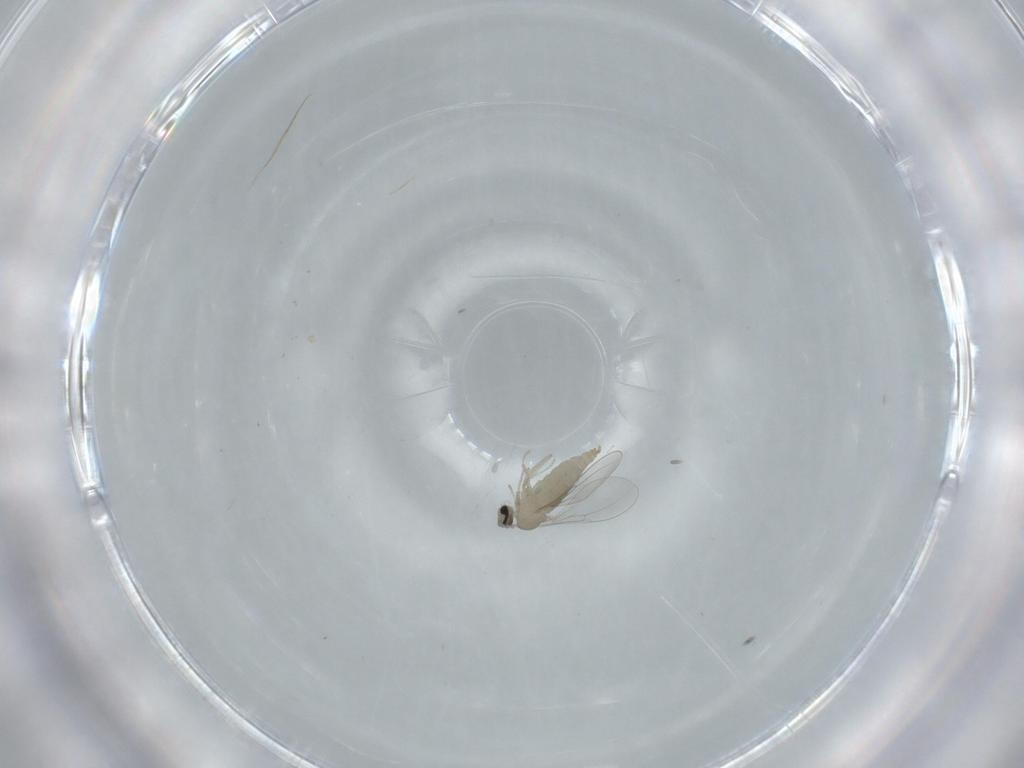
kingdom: Animalia
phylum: Arthropoda
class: Insecta
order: Diptera
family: Cecidomyiidae
